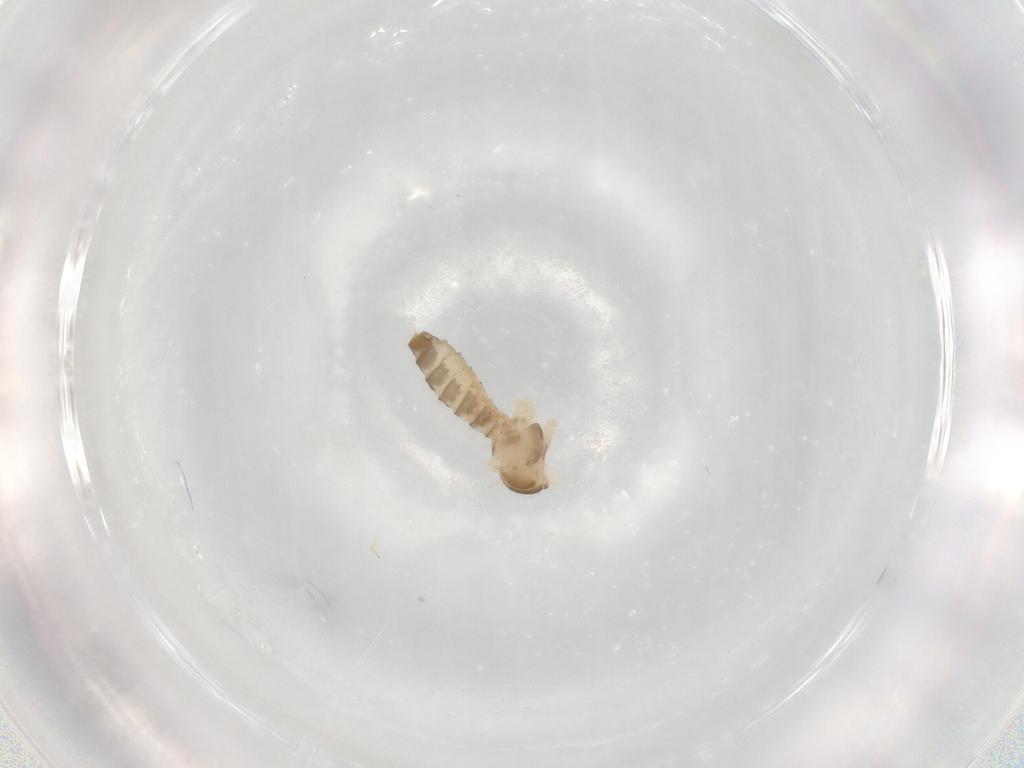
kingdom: Animalia
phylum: Arthropoda
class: Insecta
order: Diptera
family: Cecidomyiidae
